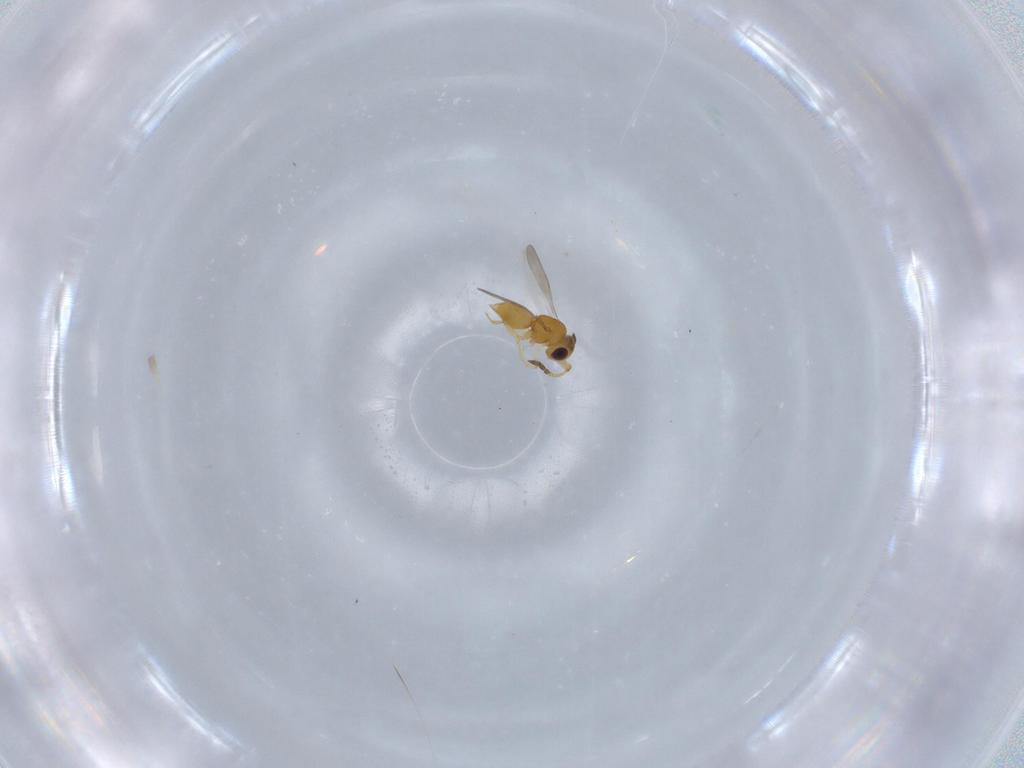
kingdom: Animalia
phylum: Arthropoda
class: Insecta
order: Hymenoptera
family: Ceraphronidae
